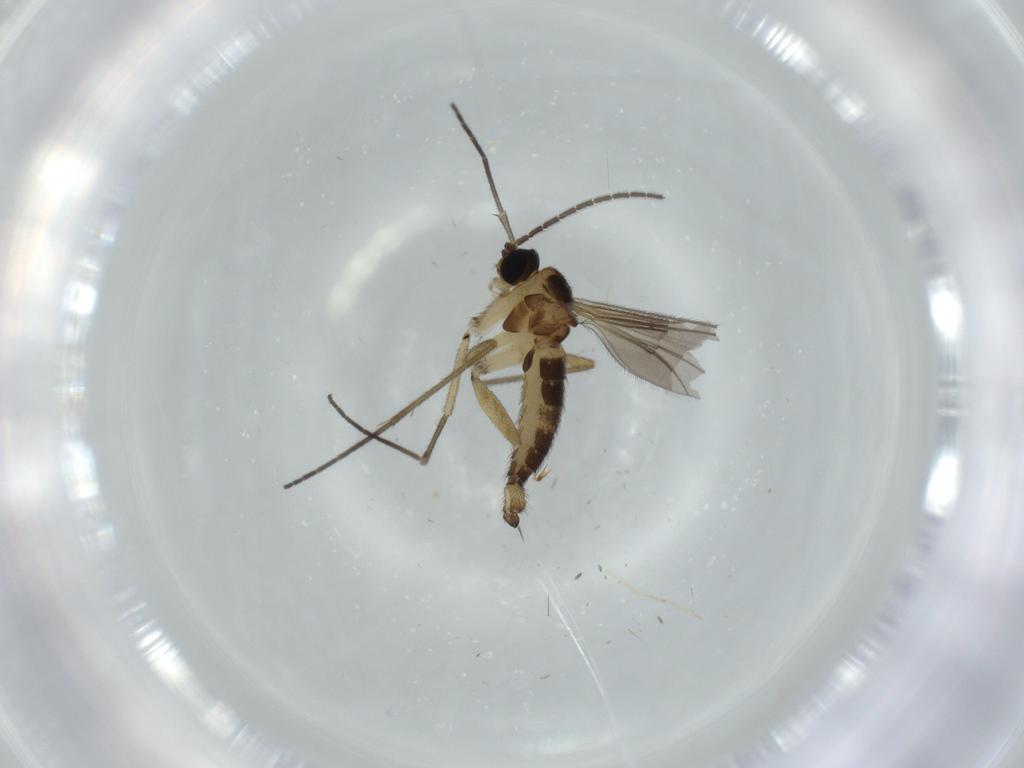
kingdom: Animalia
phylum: Arthropoda
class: Insecta
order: Diptera
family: Sciaridae
